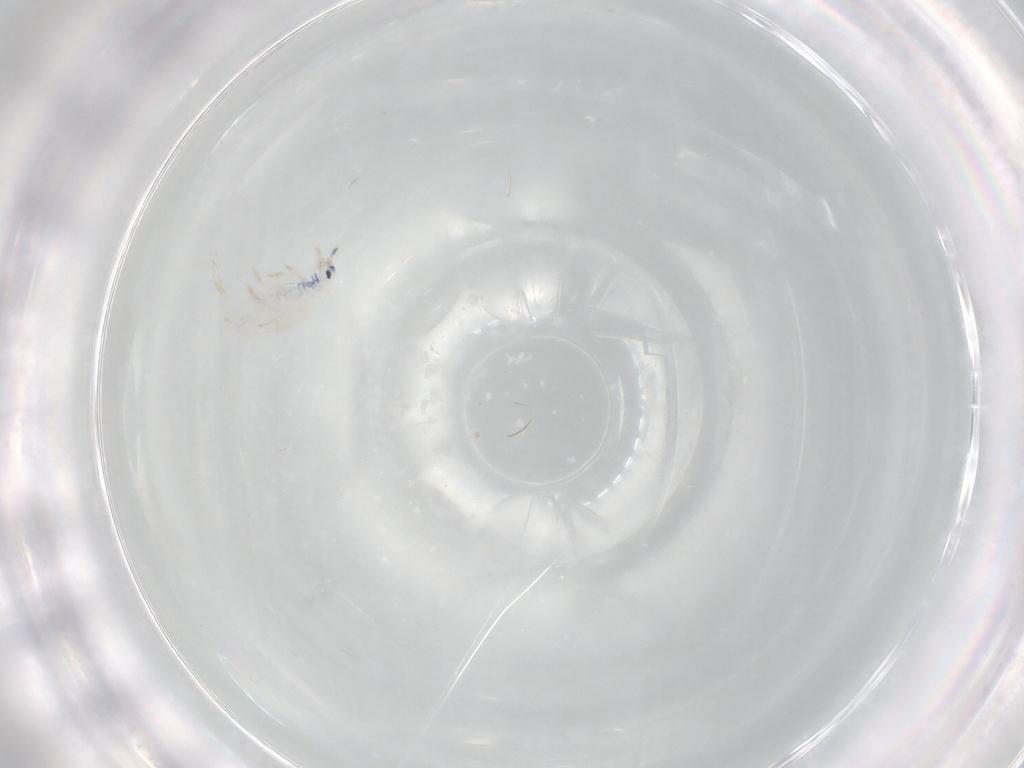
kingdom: Animalia
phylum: Arthropoda
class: Collembola
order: Entomobryomorpha
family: Entomobryidae
